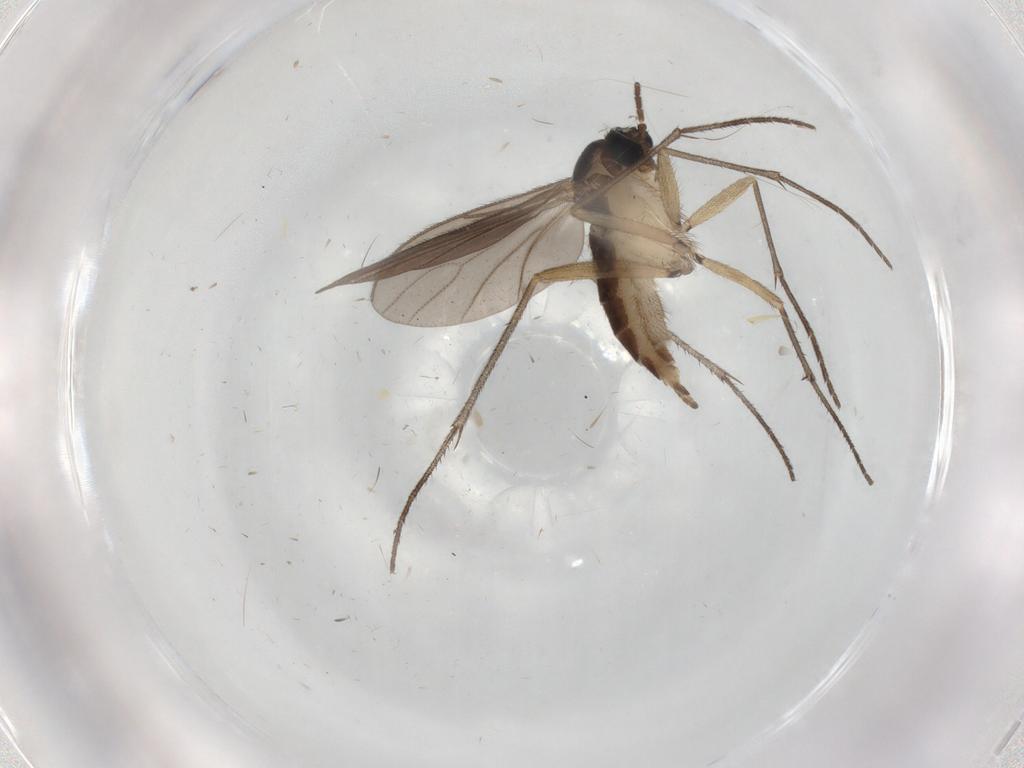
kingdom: Animalia
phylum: Arthropoda
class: Insecta
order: Diptera
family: Sciaridae
